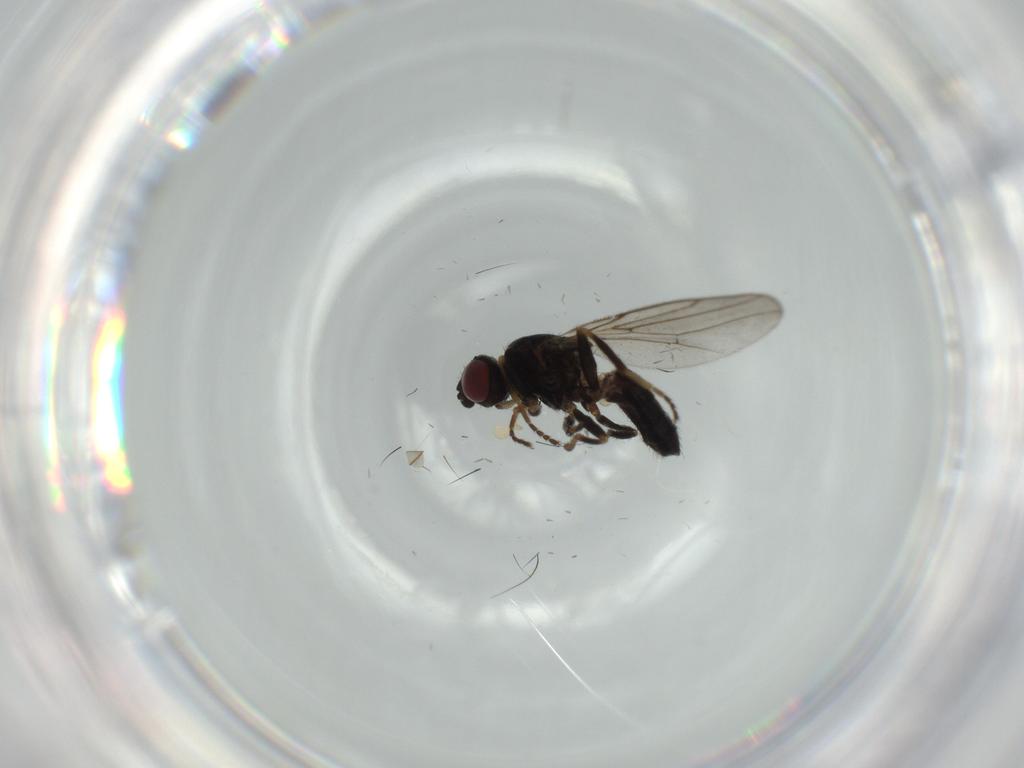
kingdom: Animalia
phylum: Arthropoda
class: Insecta
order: Diptera
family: Chloropidae
